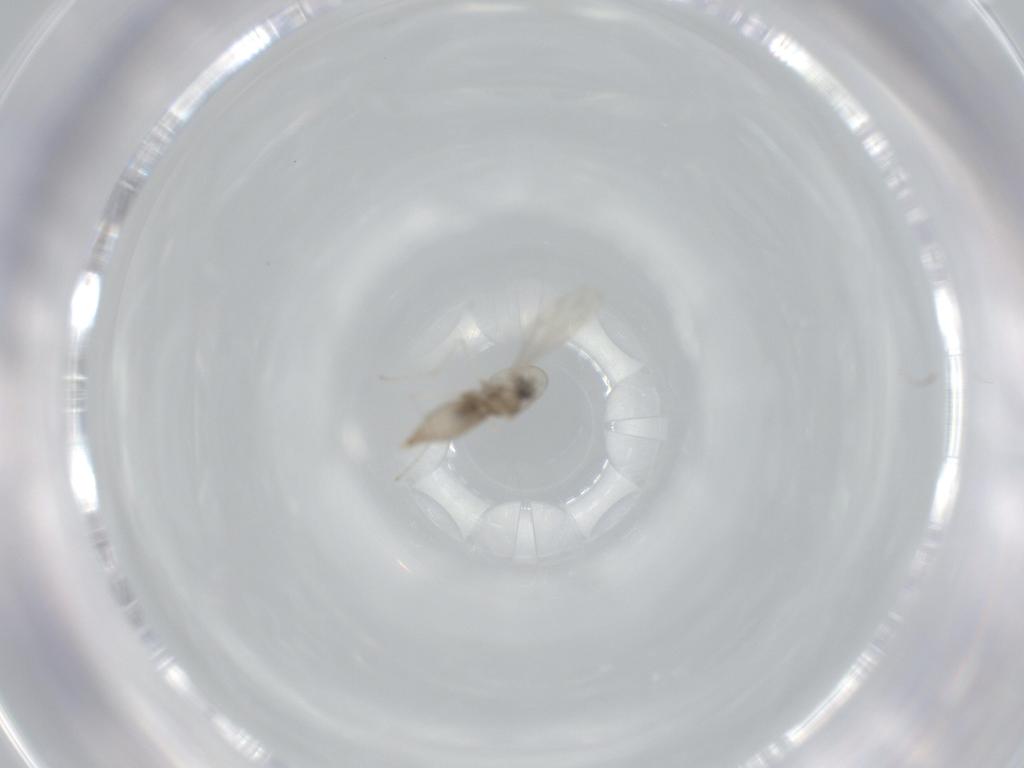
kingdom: Animalia
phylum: Arthropoda
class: Insecta
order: Diptera
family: Cecidomyiidae
